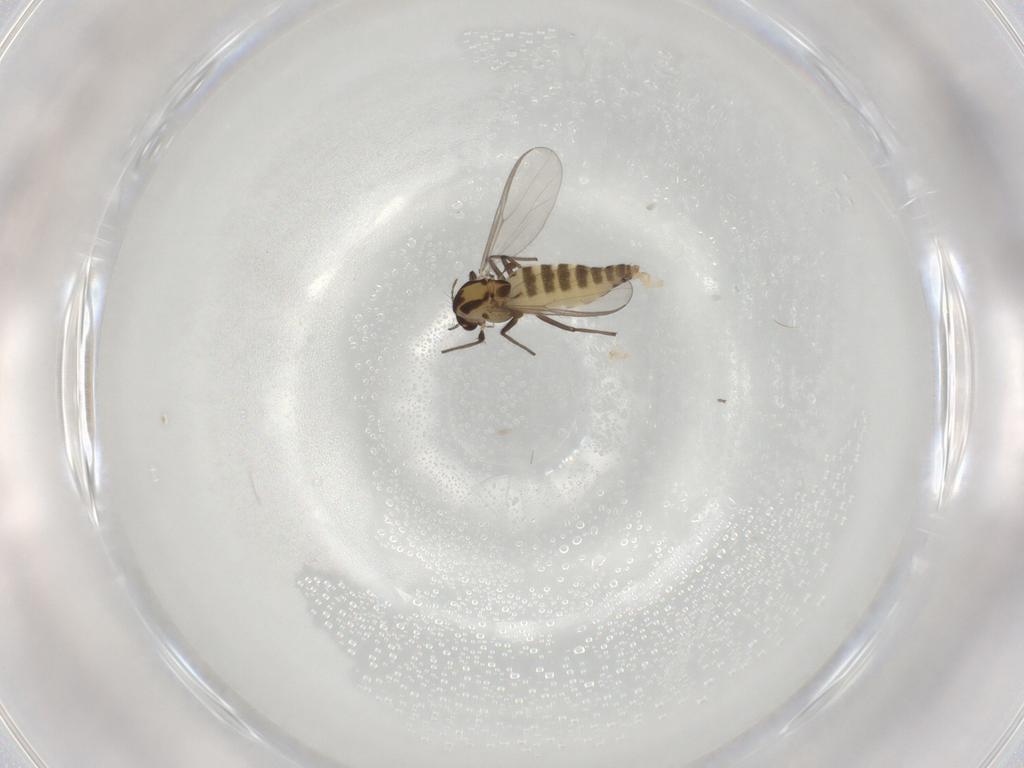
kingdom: Animalia
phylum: Arthropoda
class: Insecta
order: Diptera
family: Chironomidae
